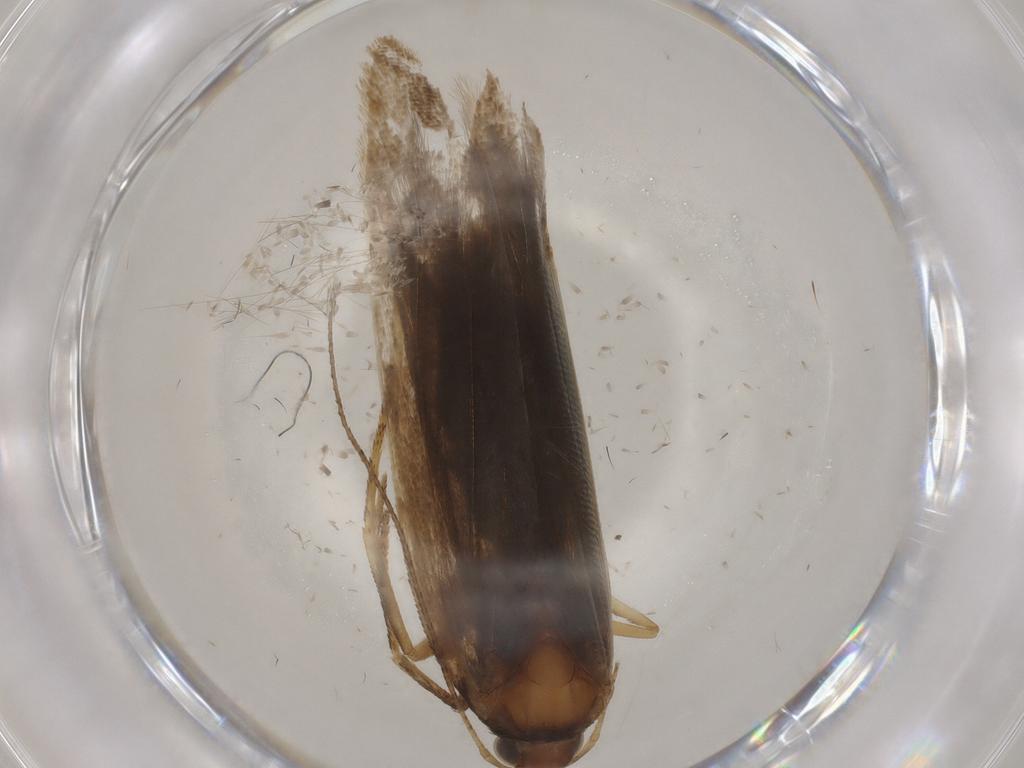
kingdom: Animalia
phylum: Arthropoda
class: Insecta
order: Lepidoptera
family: Gelechiidae
